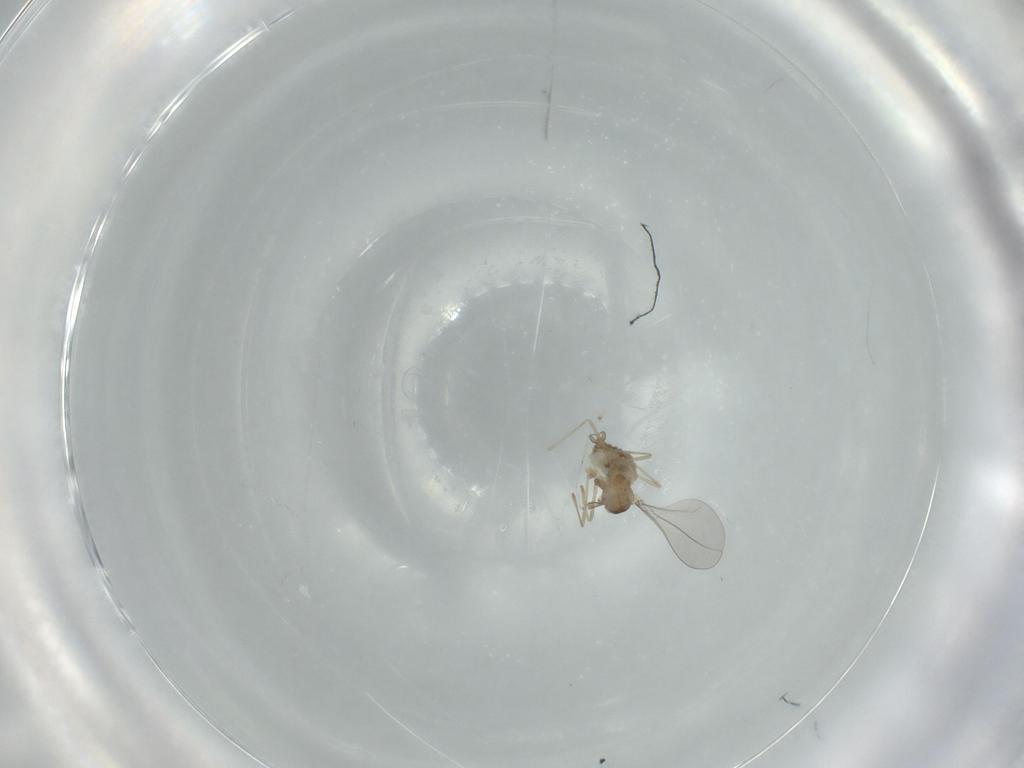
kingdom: Animalia
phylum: Arthropoda
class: Insecta
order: Diptera
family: Cecidomyiidae
